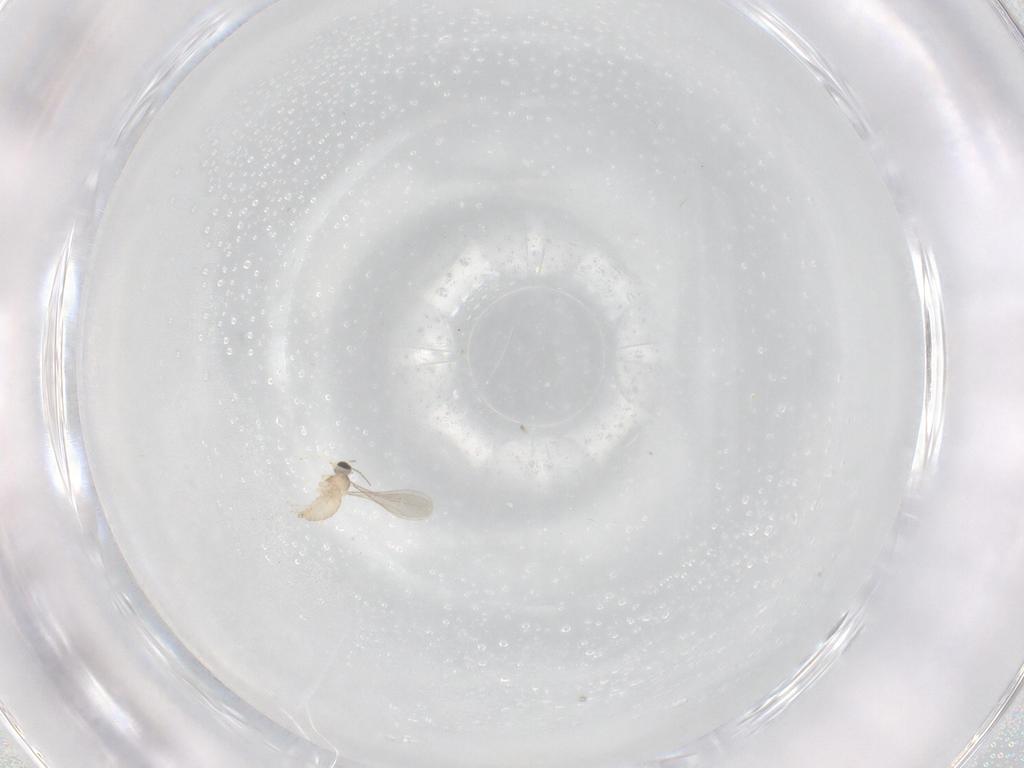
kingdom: Animalia
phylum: Arthropoda
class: Insecta
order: Diptera
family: Cecidomyiidae
